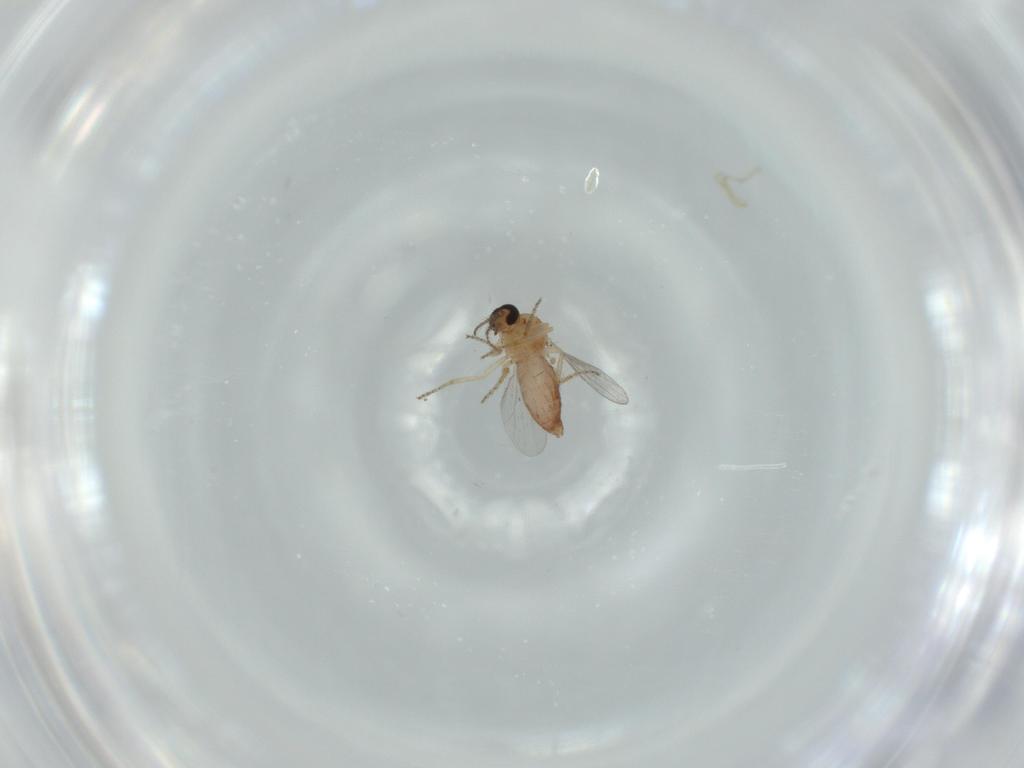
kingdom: Animalia
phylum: Arthropoda
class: Insecta
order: Diptera
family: Ceratopogonidae
